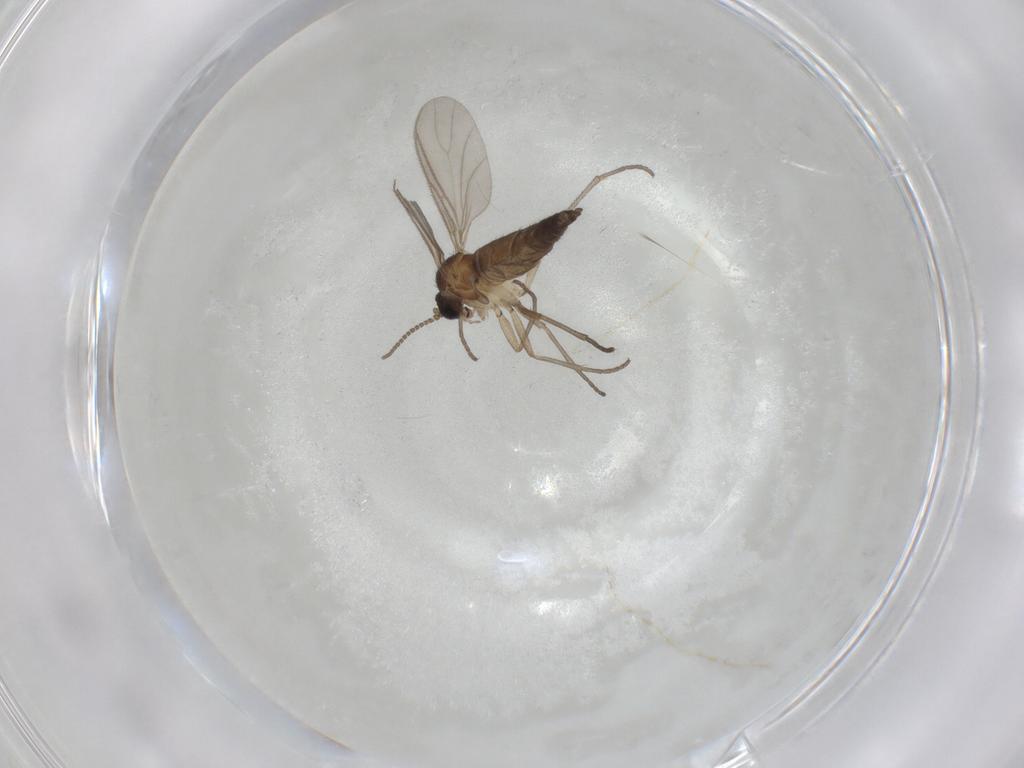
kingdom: Animalia
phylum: Arthropoda
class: Insecta
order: Diptera
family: Sciaridae
